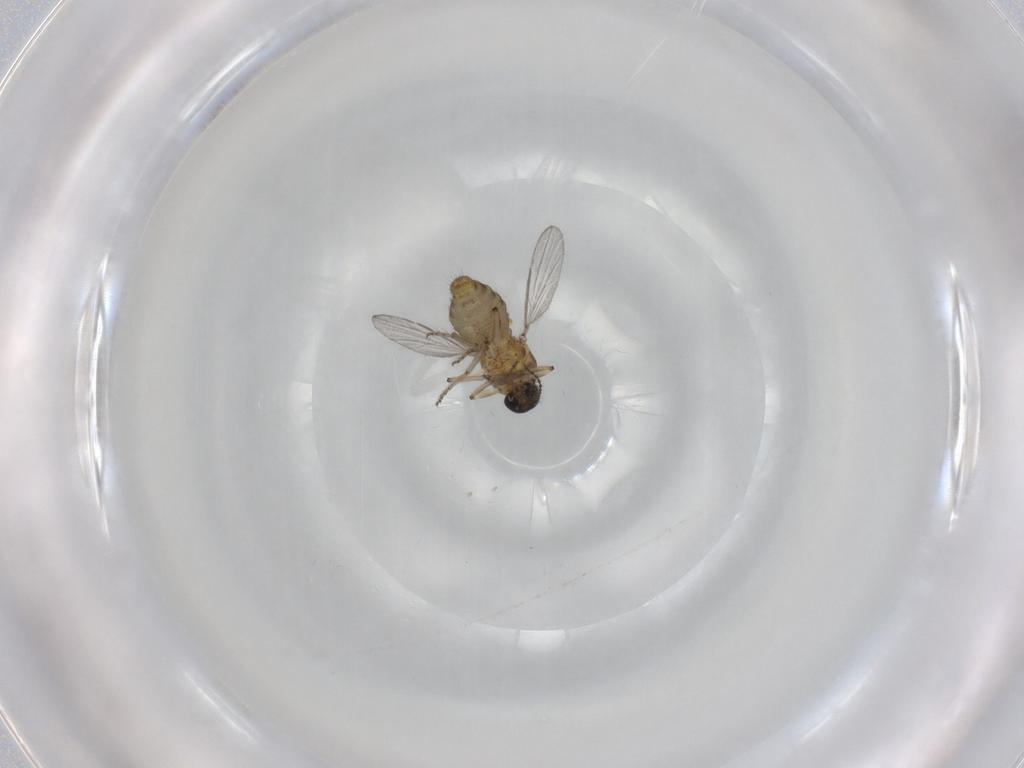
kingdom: Animalia
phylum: Arthropoda
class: Insecta
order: Diptera
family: Ceratopogonidae
